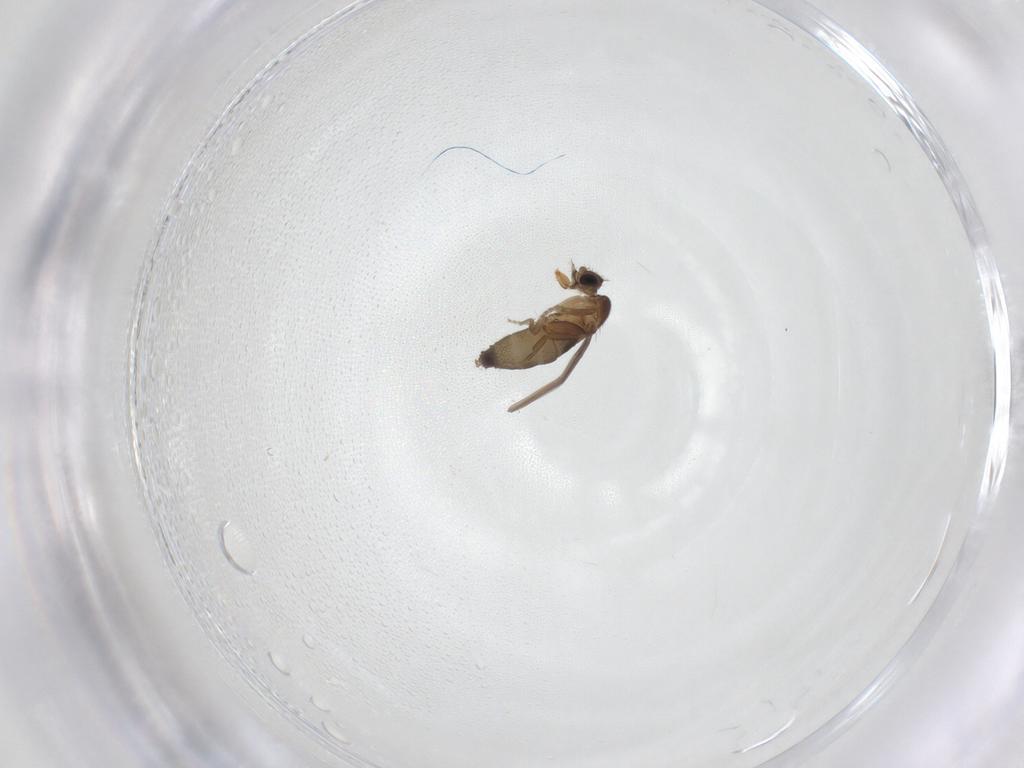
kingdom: Animalia
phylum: Arthropoda
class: Insecta
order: Diptera
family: Phoridae
